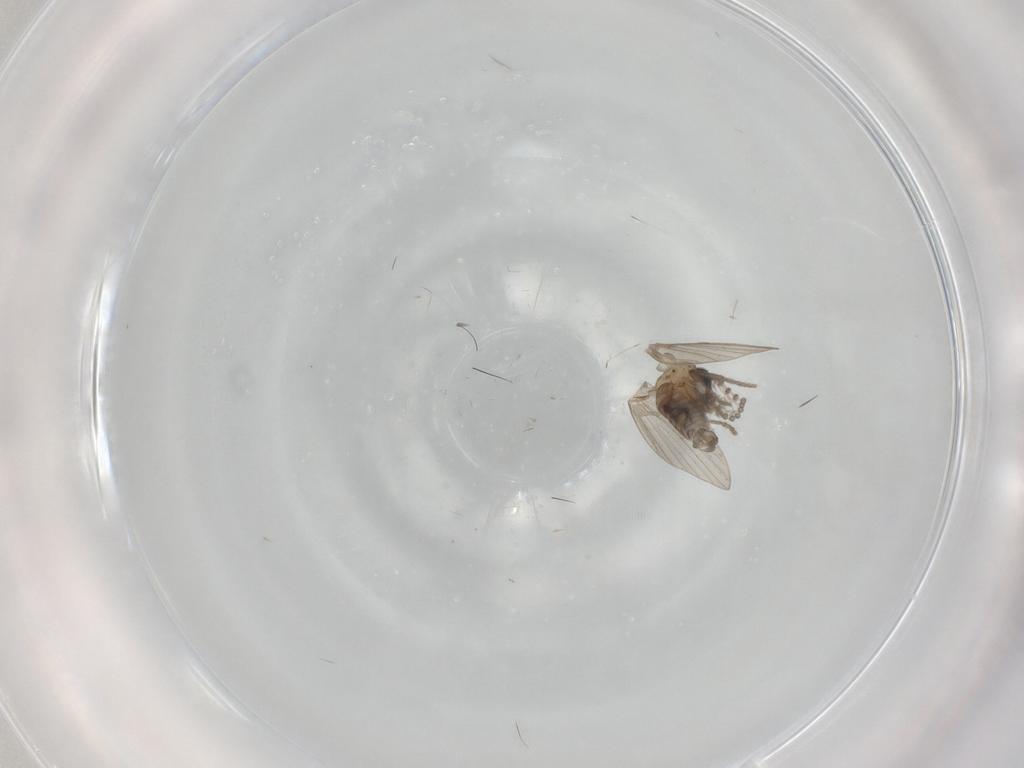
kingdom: Animalia
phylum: Arthropoda
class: Insecta
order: Diptera
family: Psychodidae
